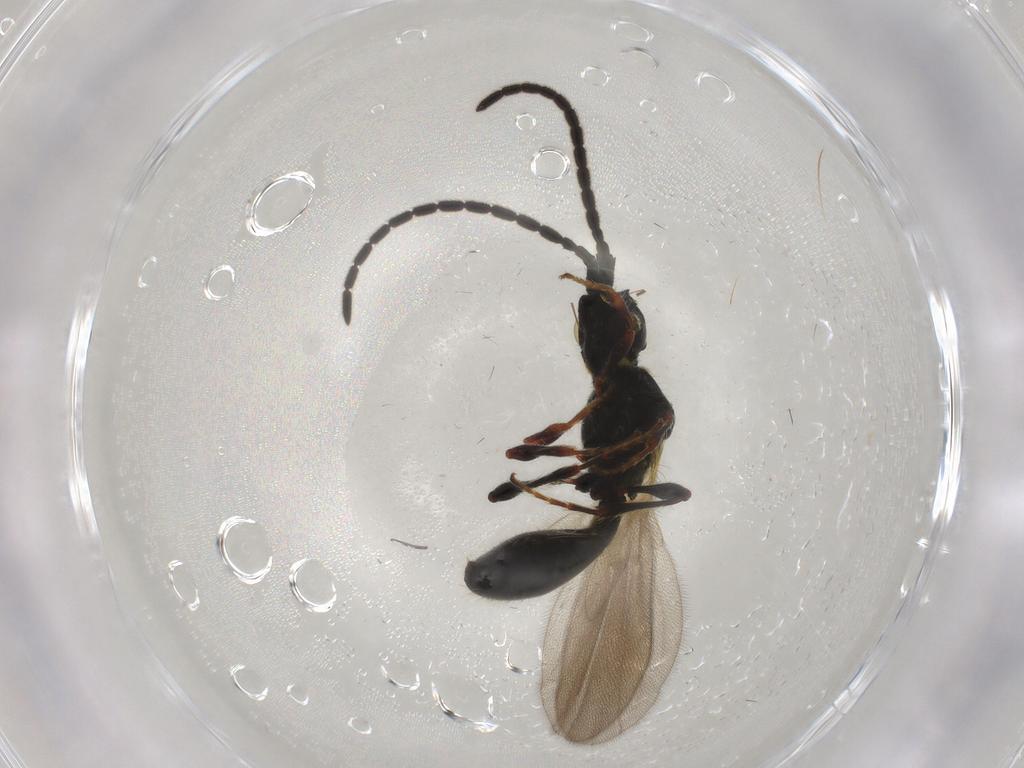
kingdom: Animalia
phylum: Arthropoda
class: Insecta
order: Hymenoptera
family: Diapriidae
